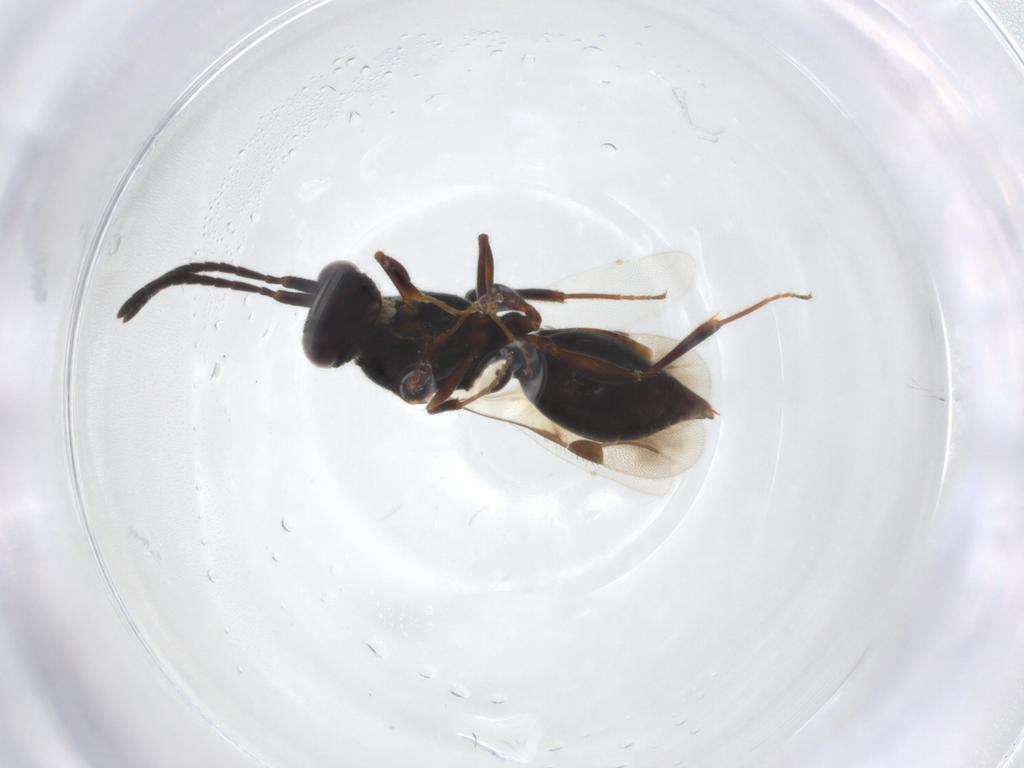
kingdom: Animalia
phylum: Arthropoda
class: Insecta
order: Hymenoptera
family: Megaspilidae
